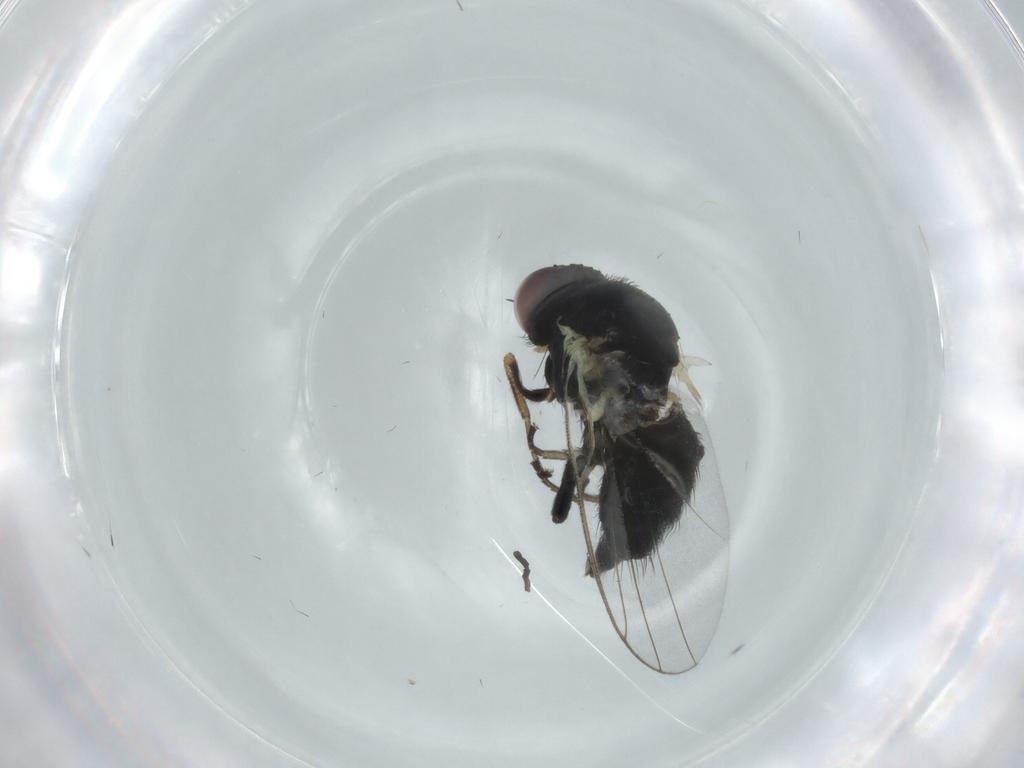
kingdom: Animalia
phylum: Arthropoda
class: Insecta
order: Diptera
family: Agromyzidae
